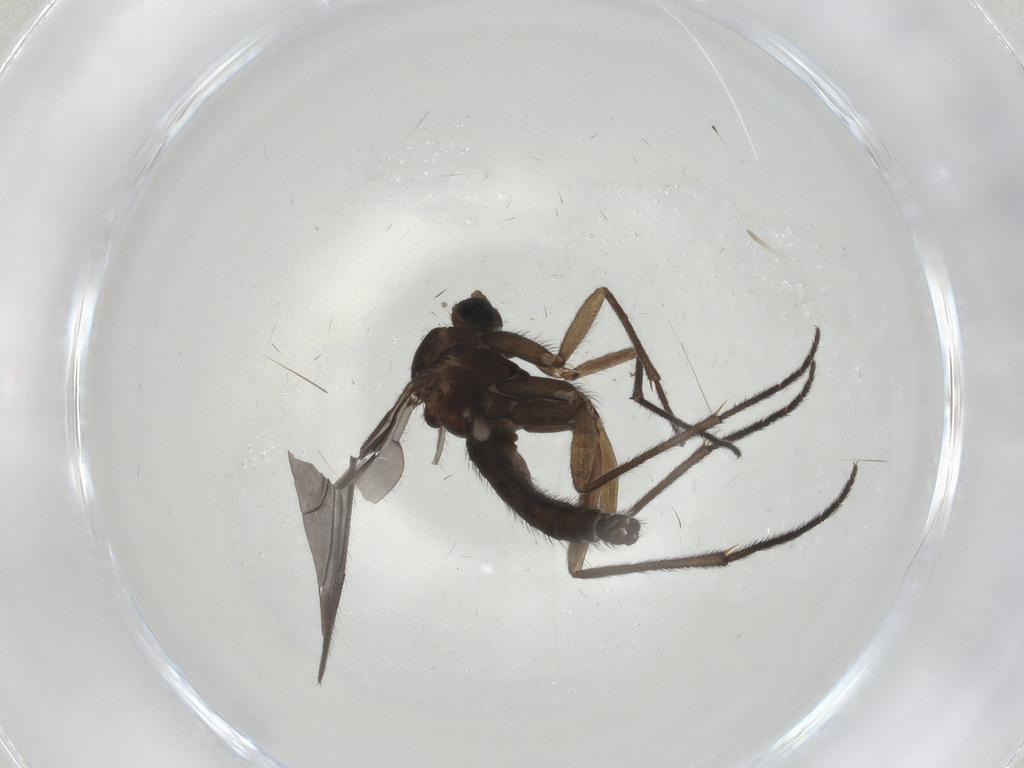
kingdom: Animalia
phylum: Arthropoda
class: Insecta
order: Diptera
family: Sciaridae
